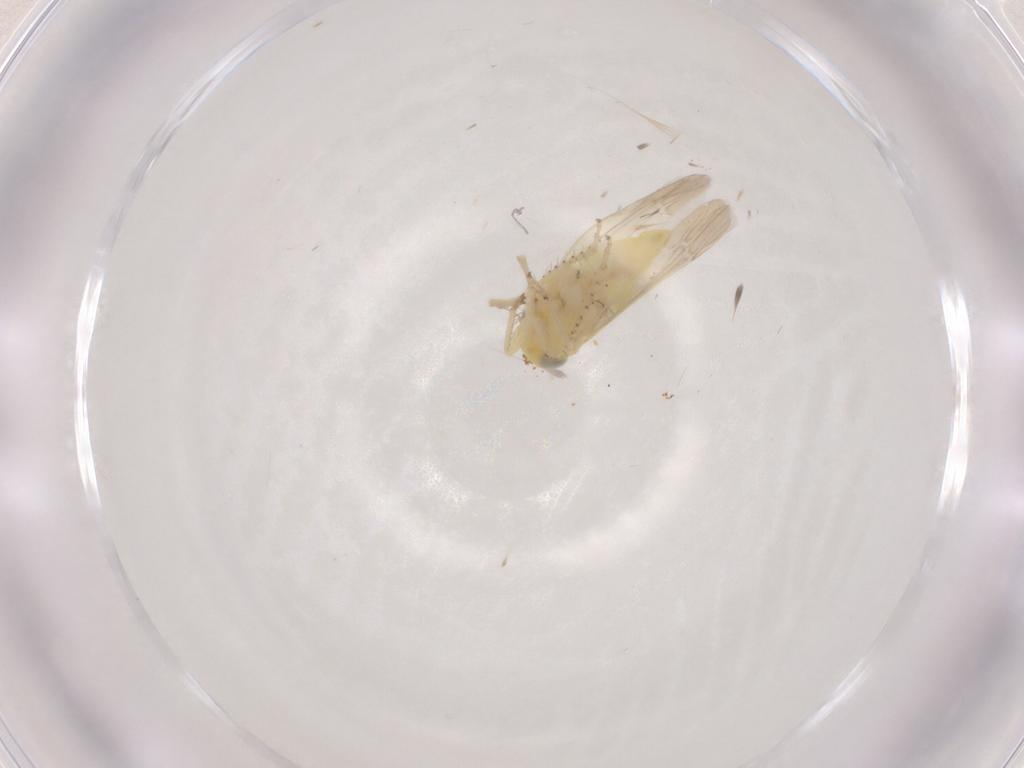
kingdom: Animalia
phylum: Arthropoda
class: Insecta
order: Hemiptera
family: Cicadellidae
